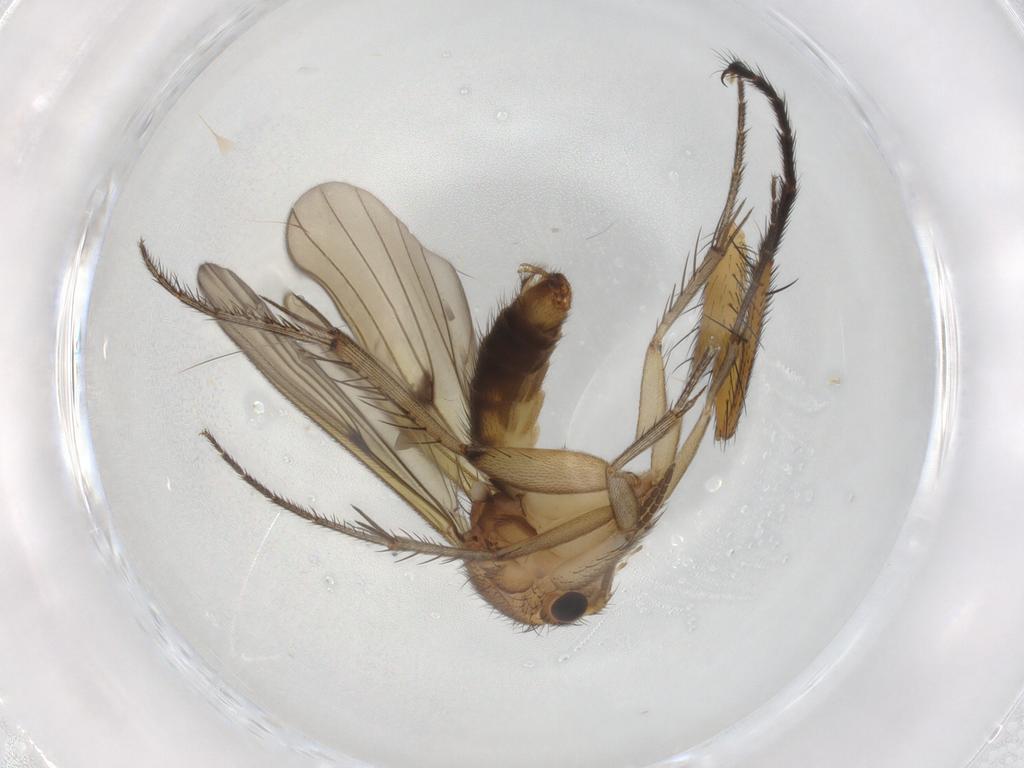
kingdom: Animalia
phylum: Arthropoda
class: Insecta
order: Diptera
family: Phoridae
